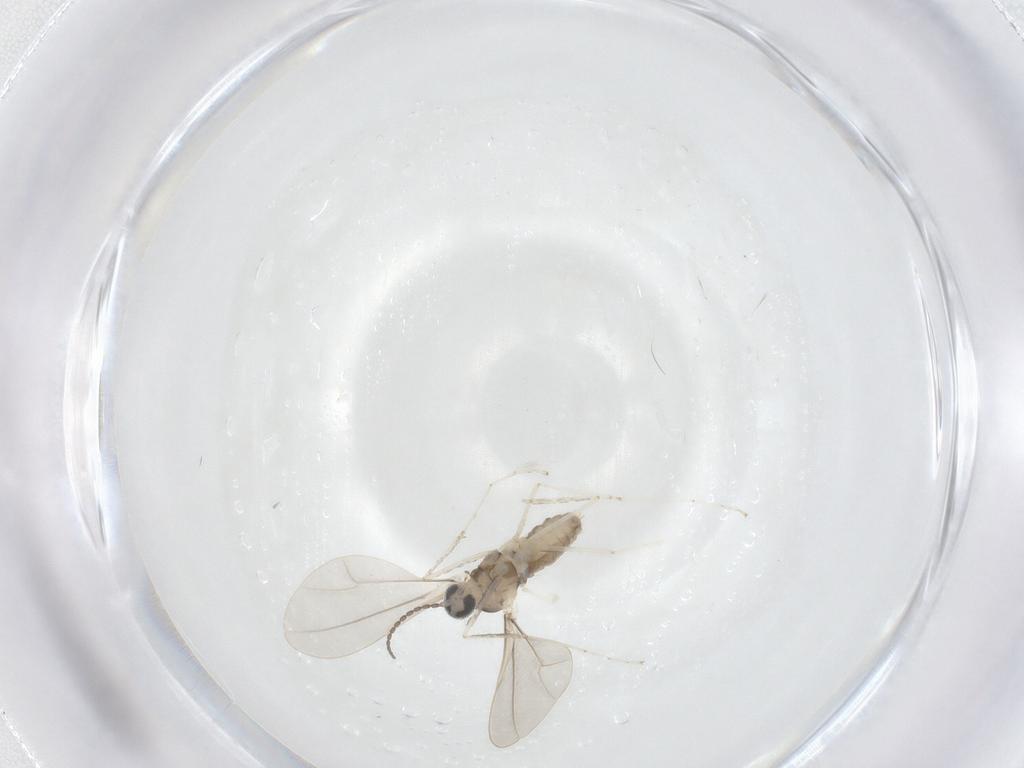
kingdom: Animalia
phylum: Arthropoda
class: Insecta
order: Diptera
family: Cecidomyiidae
